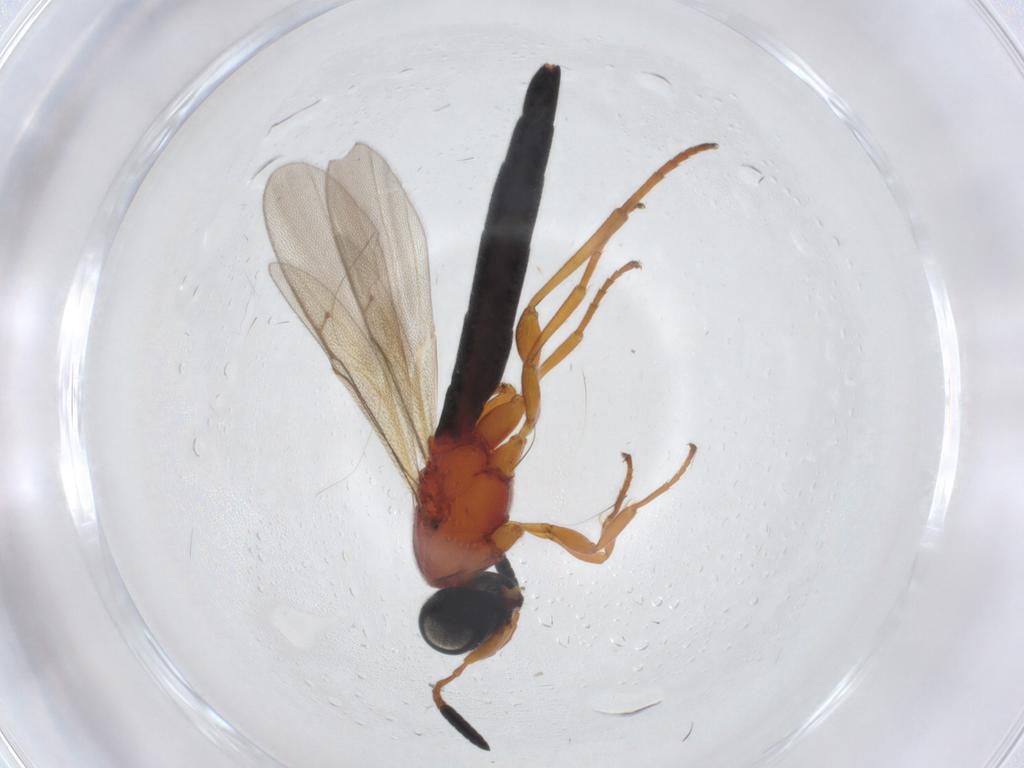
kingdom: Animalia
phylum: Arthropoda
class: Insecta
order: Hymenoptera
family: Scelionidae
